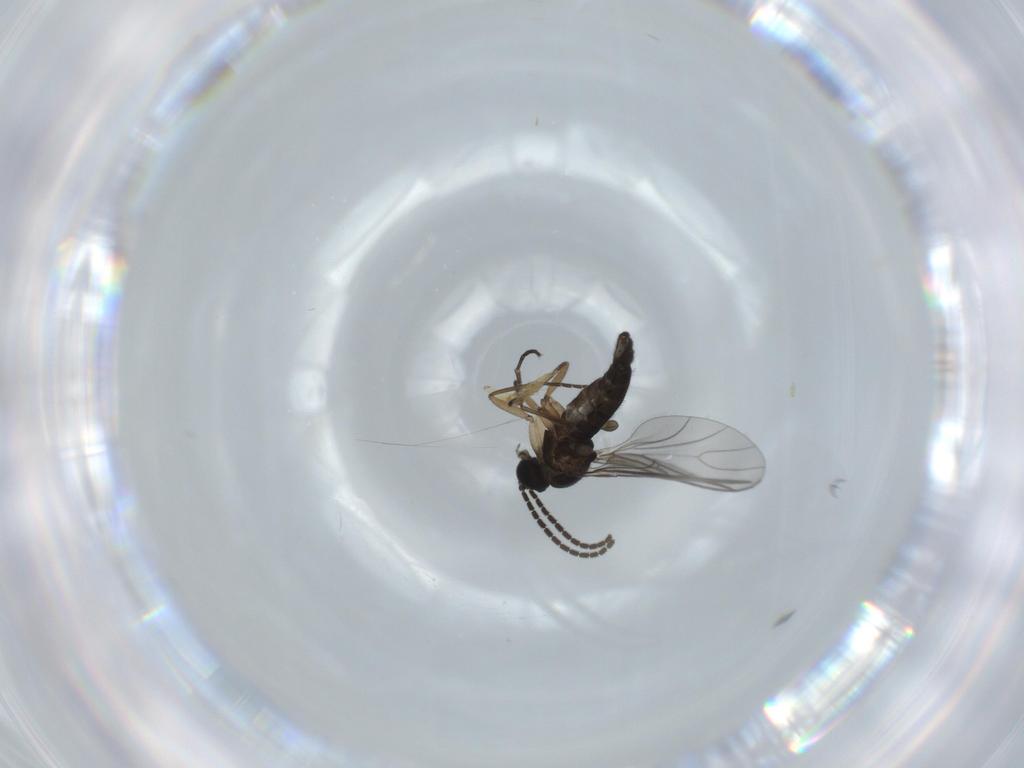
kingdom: Animalia
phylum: Arthropoda
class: Insecta
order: Diptera
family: Sciaridae
